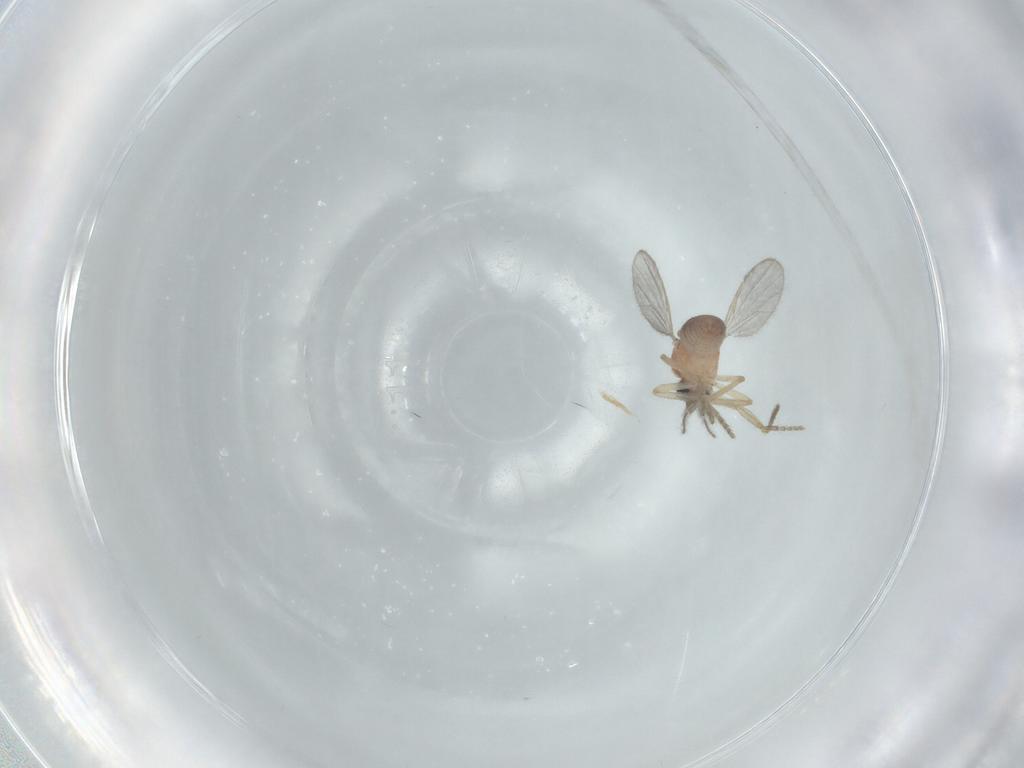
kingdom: Animalia
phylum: Arthropoda
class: Insecta
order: Diptera
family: Ceratopogonidae
